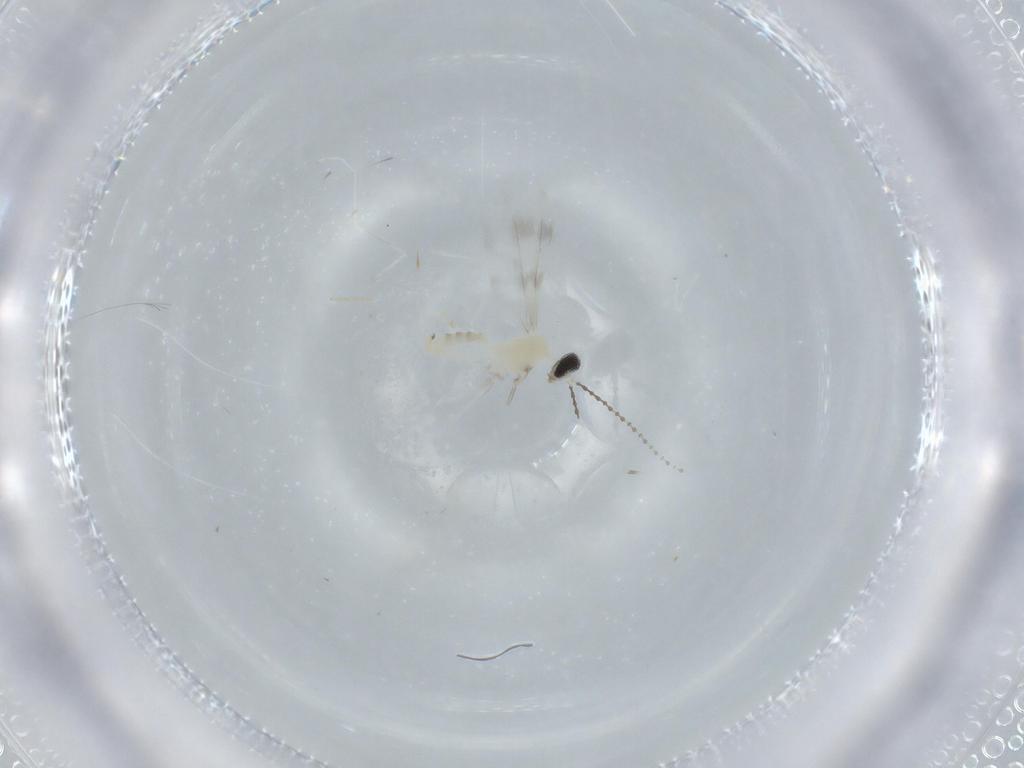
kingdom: Animalia
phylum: Arthropoda
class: Insecta
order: Diptera
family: Cecidomyiidae
